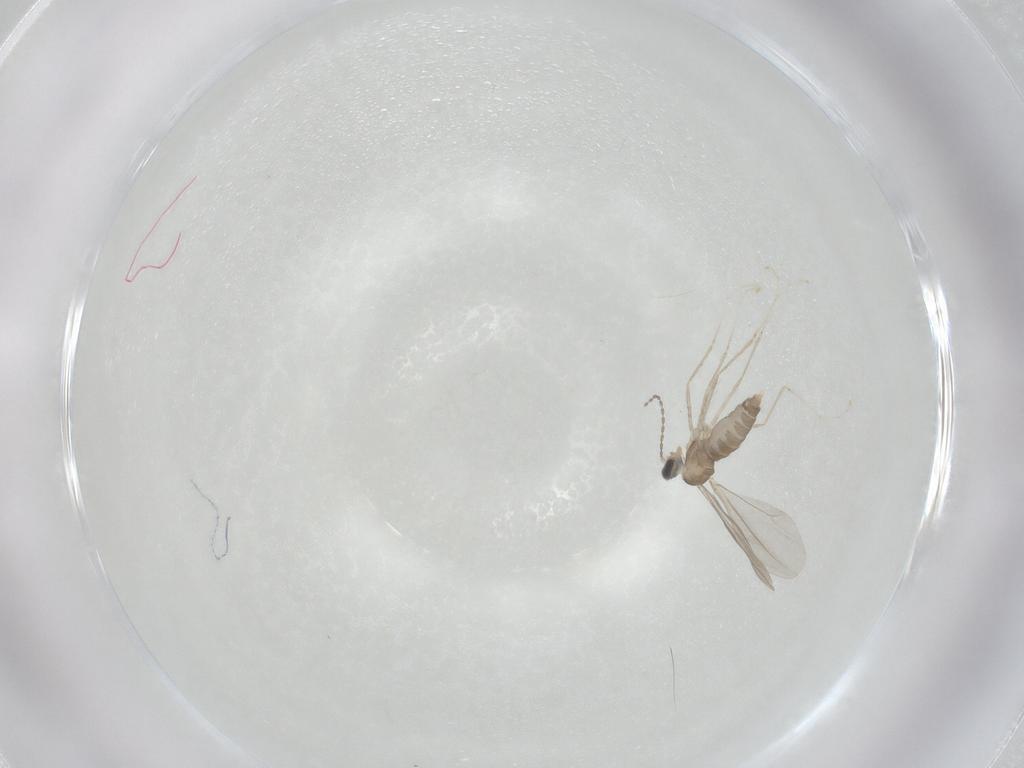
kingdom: Animalia
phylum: Arthropoda
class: Insecta
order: Diptera
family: Cecidomyiidae
